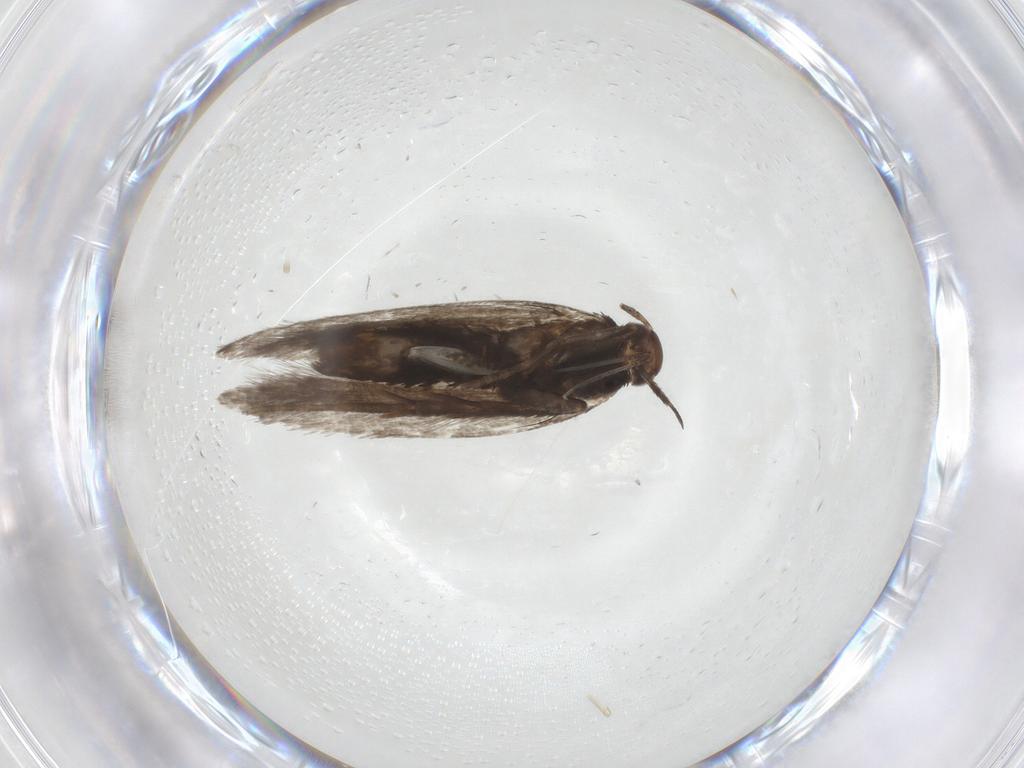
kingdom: Animalia
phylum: Arthropoda
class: Insecta
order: Lepidoptera
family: Gelechiidae
